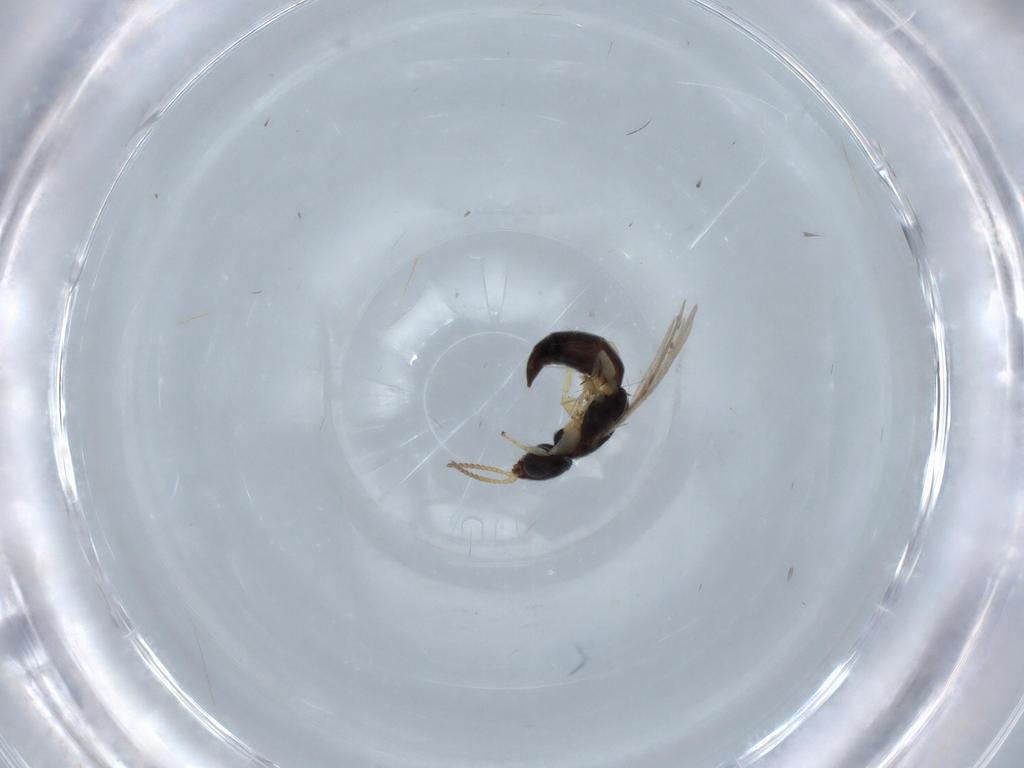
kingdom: Animalia
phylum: Arthropoda
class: Insecta
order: Hymenoptera
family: Bethylidae
